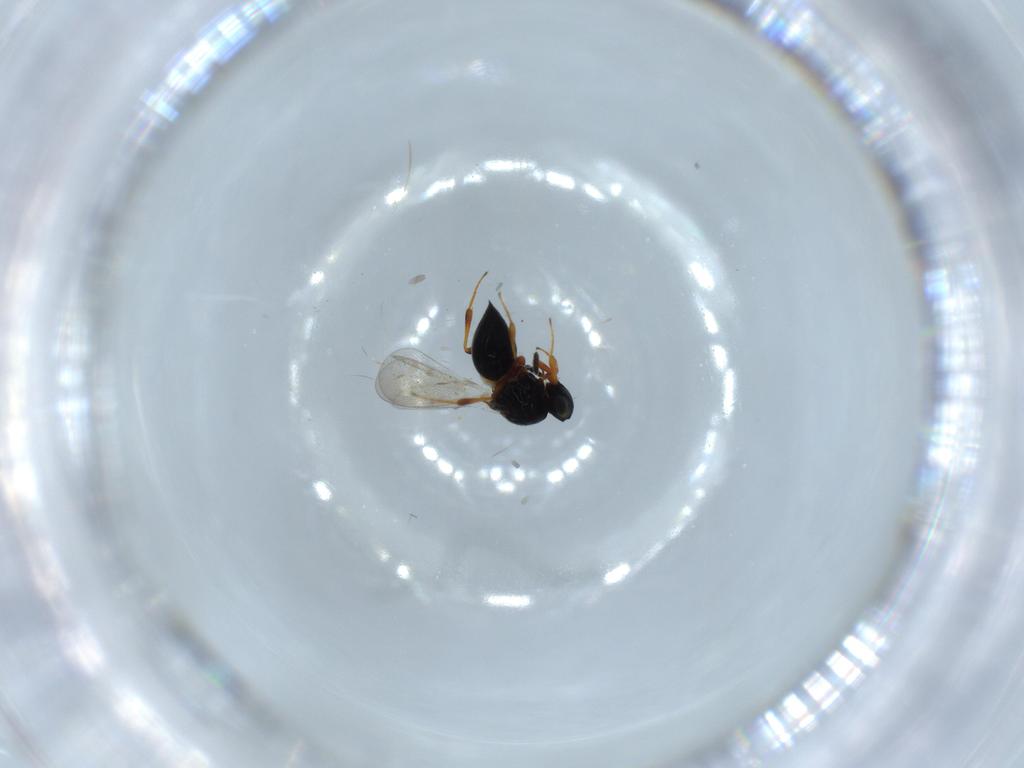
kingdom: Animalia
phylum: Arthropoda
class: Insecta
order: Hymenoptera
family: Platygastridae
